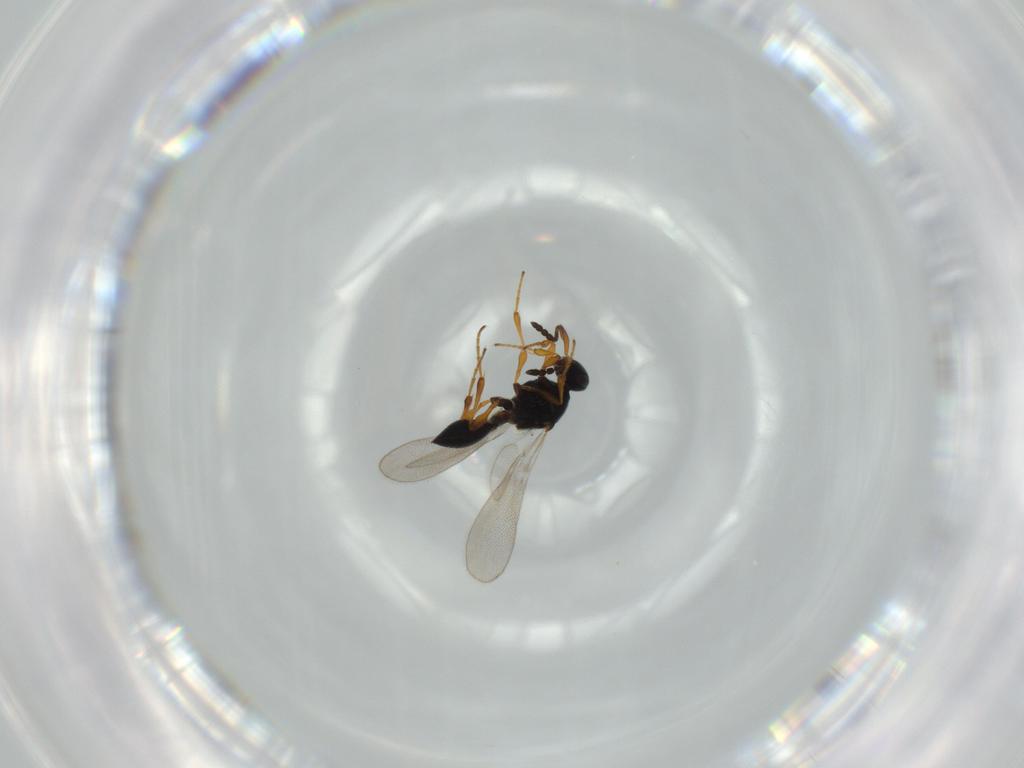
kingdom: Animalia
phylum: Arthropoda
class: Insecta
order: Hymenoptera
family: Platygastridae
